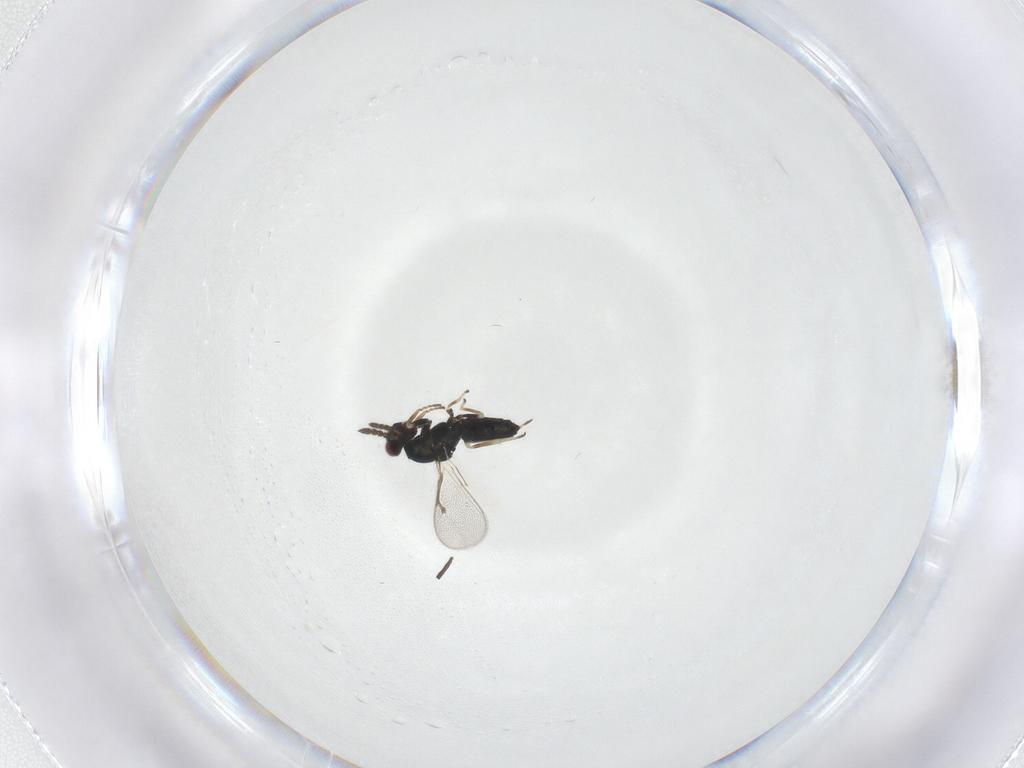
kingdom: Animalia
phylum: Arthropoda
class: Insecta
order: Hymenoptera
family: Eulophidae
